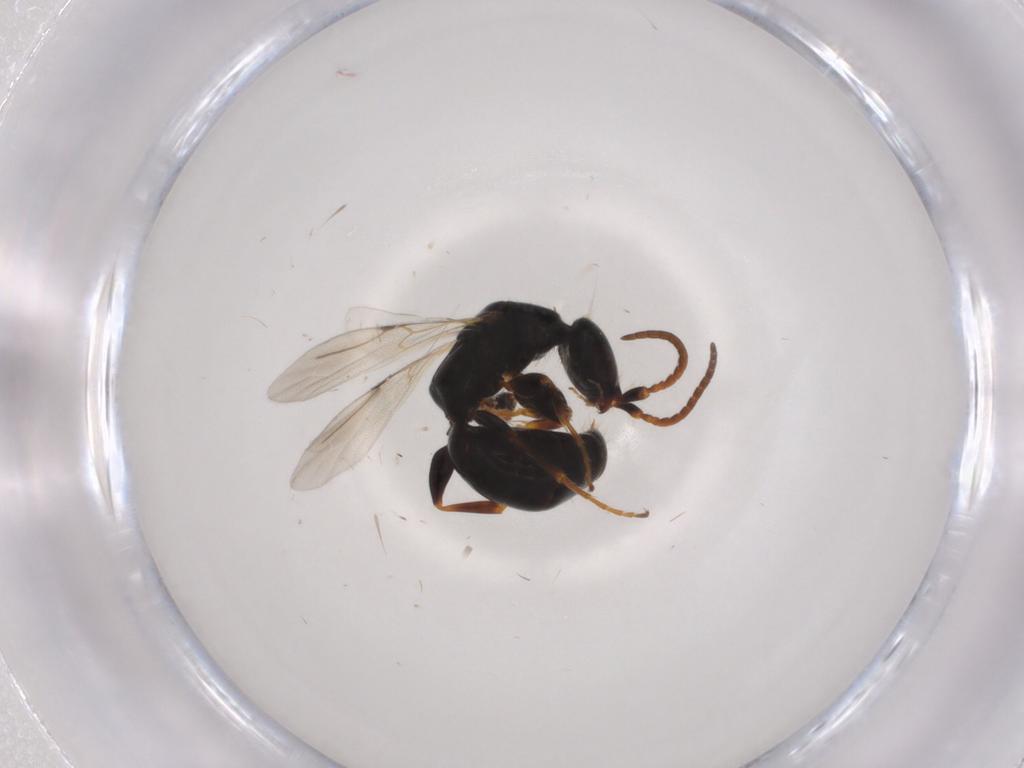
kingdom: Animalia
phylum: Arthropoda
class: Insecta
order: Hymenoptera
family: Bethylidae
